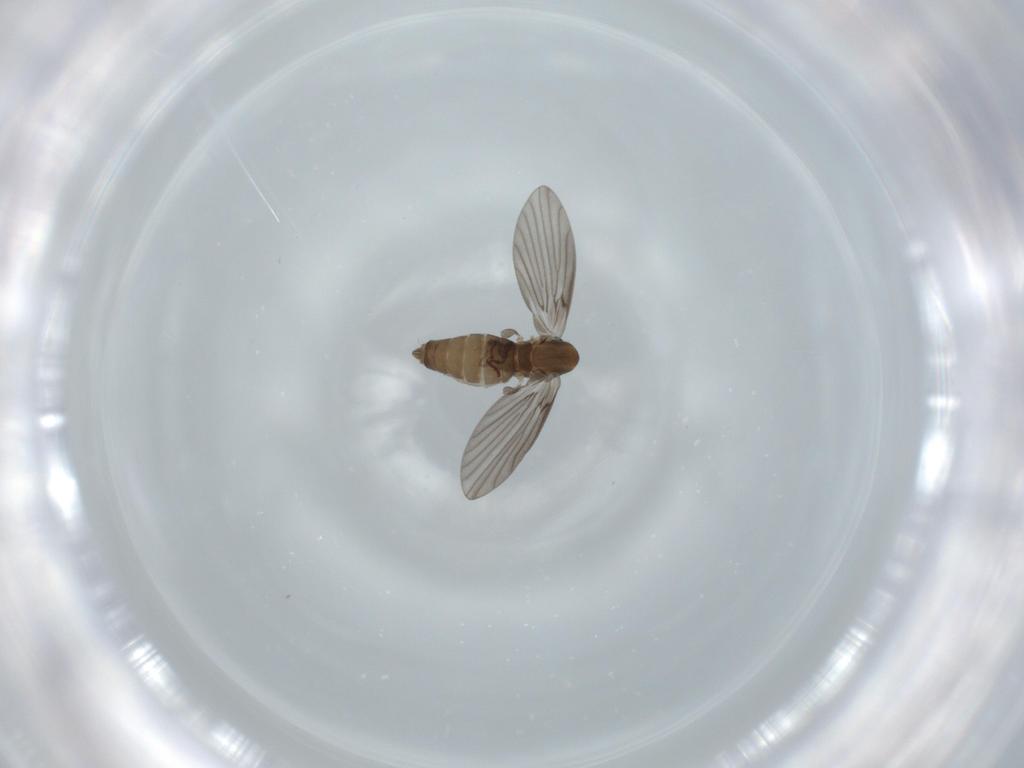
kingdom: Animalia
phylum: Arthropoda
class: Insecta
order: Diptera
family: Psychodidae
